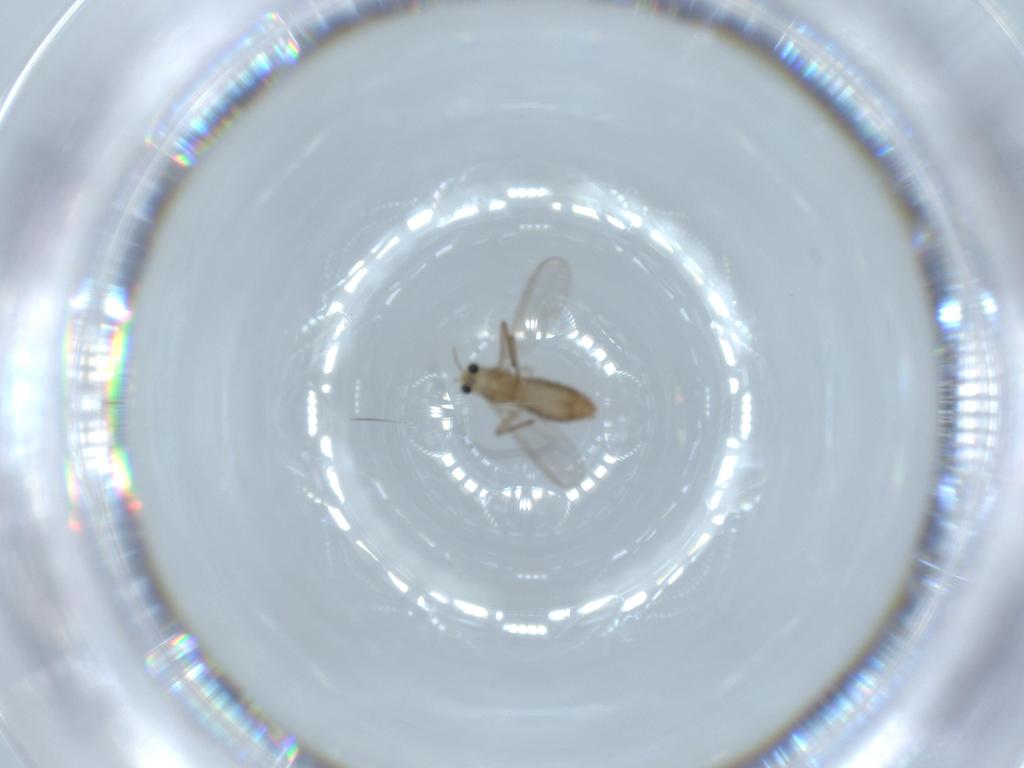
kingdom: Animalia
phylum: Arthropoda
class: Insecta
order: Diptera
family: Chironomidae
